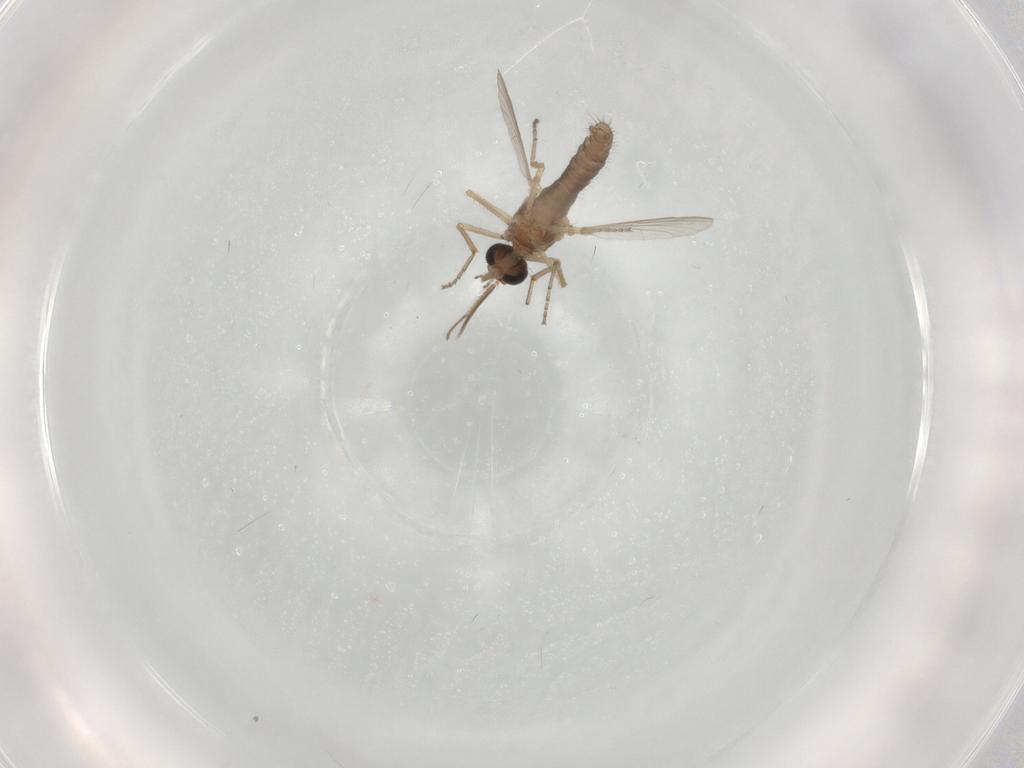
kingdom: Animalia
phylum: Arthropoda
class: Insecta
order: Diptera
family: Ceratopogonidae
